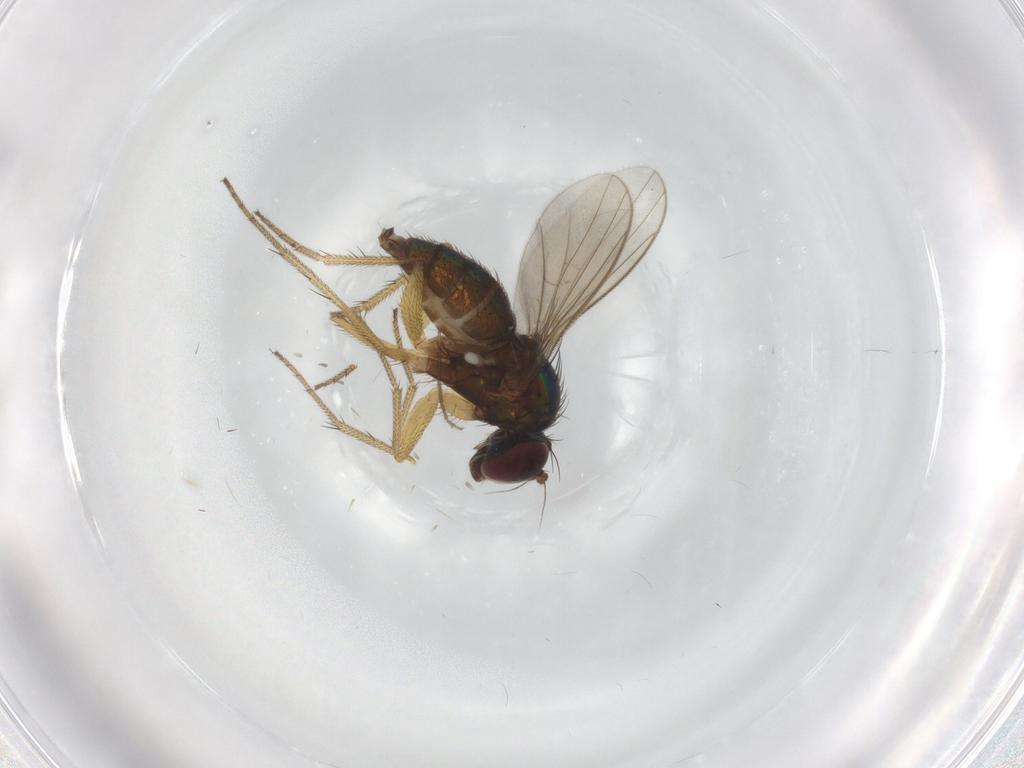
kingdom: Animalia
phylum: Arthropoda
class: Insecta
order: Diptera
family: Dolichopodidae
